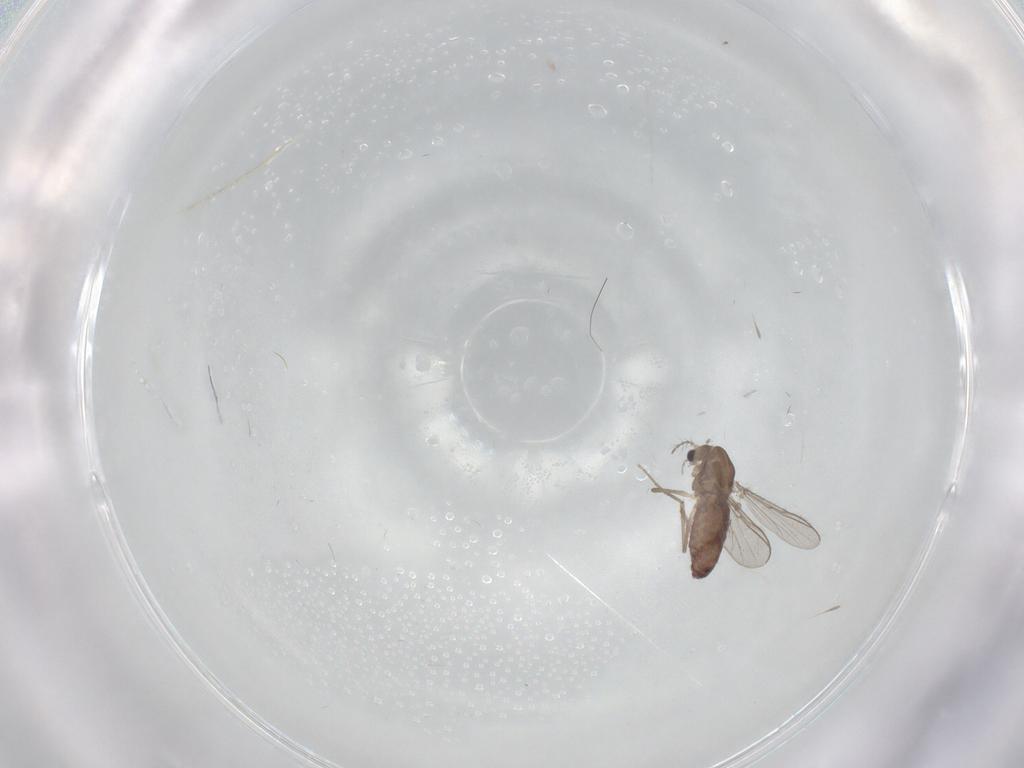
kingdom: Animalia
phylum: Arthropoda
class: Insecta
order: Diptera
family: Chironomidae
